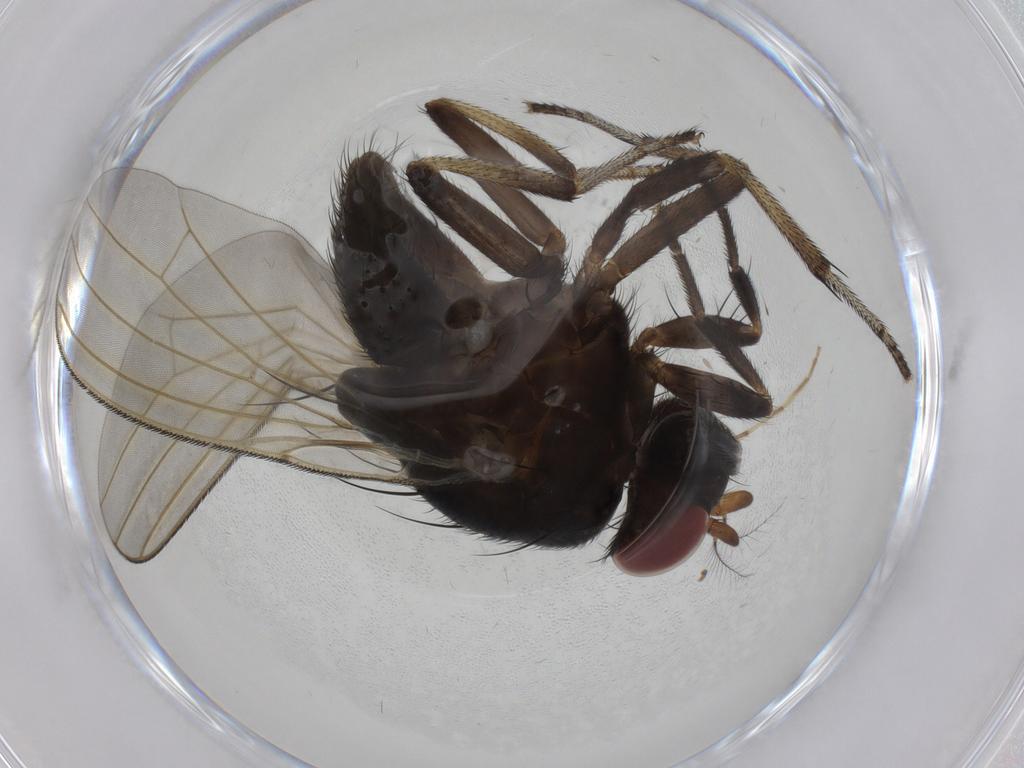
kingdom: Animalia
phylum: Arthropoda
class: Insecta
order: Diptera
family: Lauxaniidae
